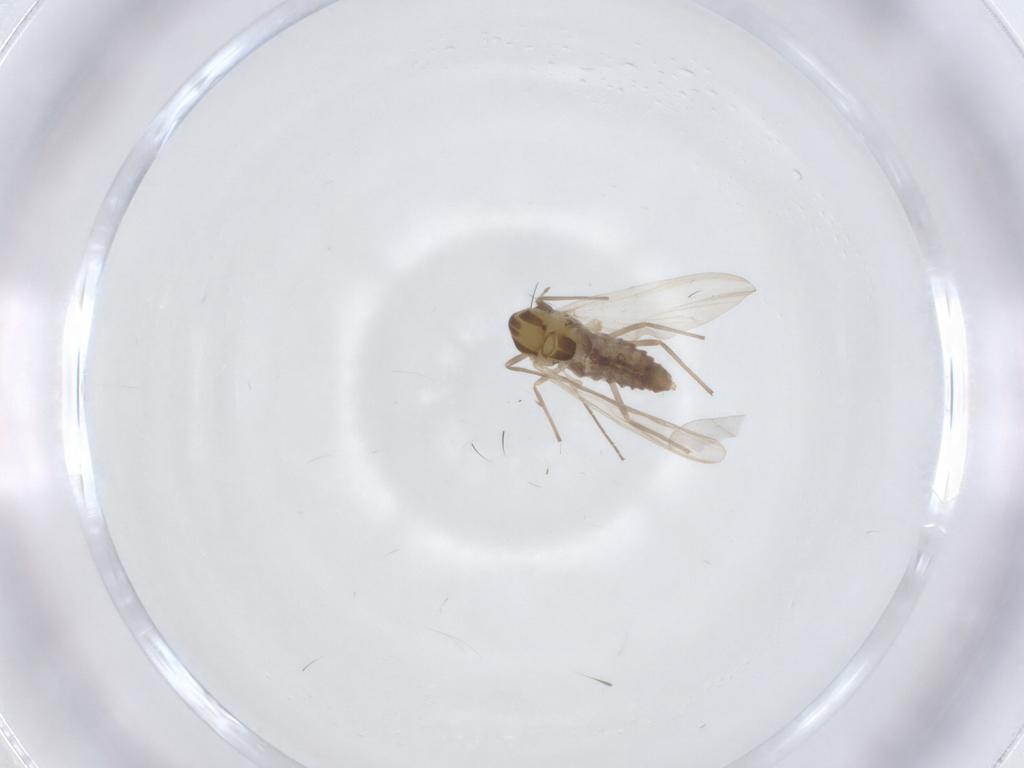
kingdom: Animalia
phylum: Arthropoda
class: Insecta
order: Diptera
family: Chironomidae
